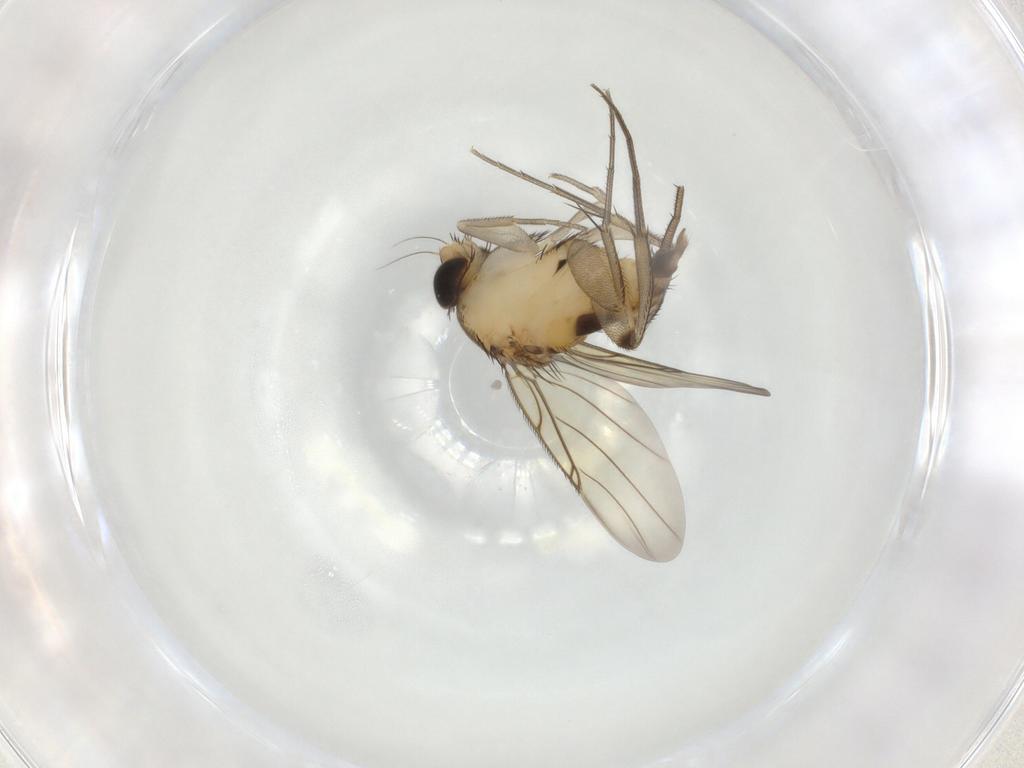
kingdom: Animalia
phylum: Arthropoda
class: Insecta
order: Diptera
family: Phoridae
